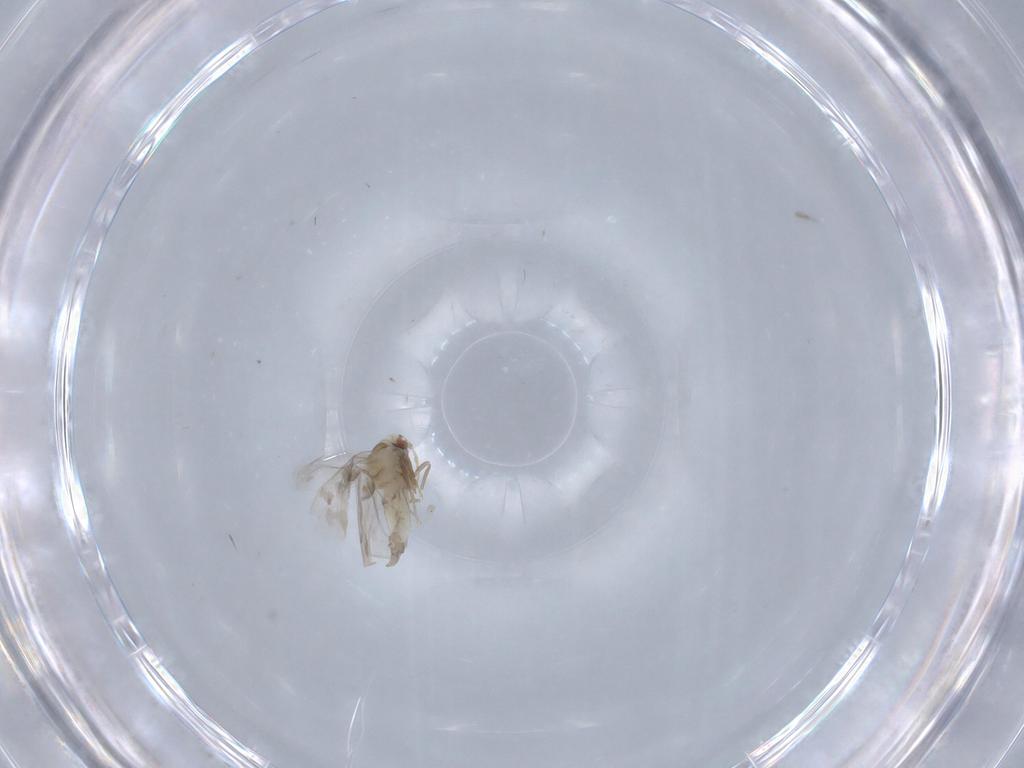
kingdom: Animalia
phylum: Arthropoda
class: Insecta
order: Hemiptera
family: Aleyrodidae
